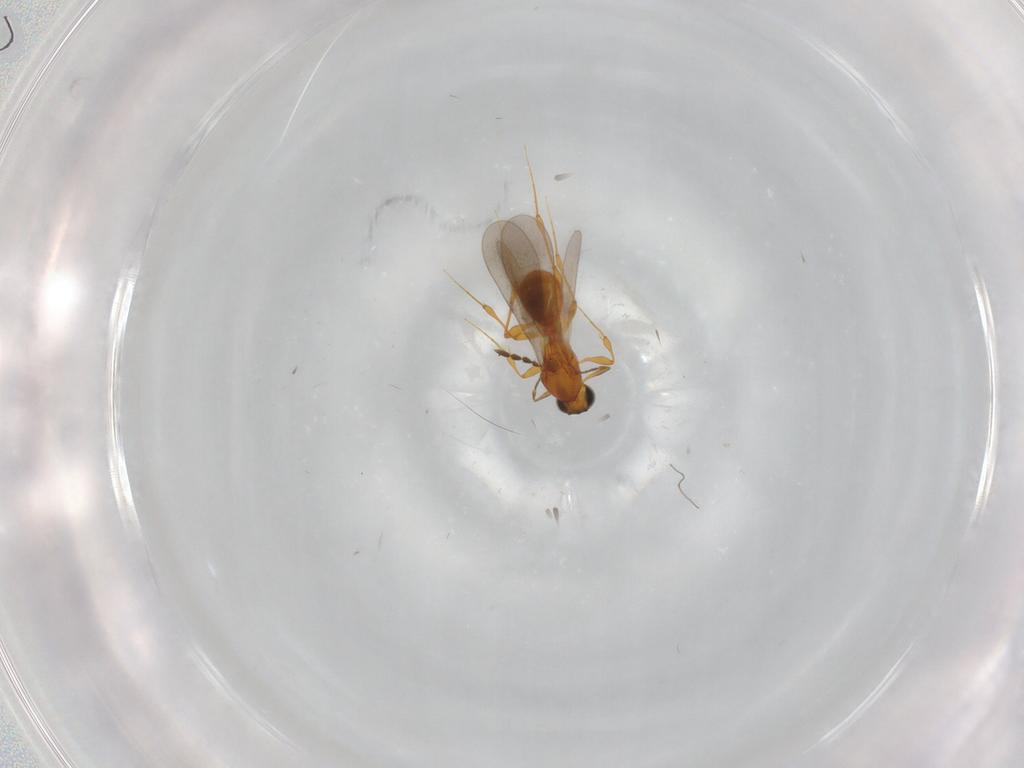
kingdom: Animalia
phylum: Arthropoda
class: Insecta
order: Hymenoptera
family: Platygastridae
